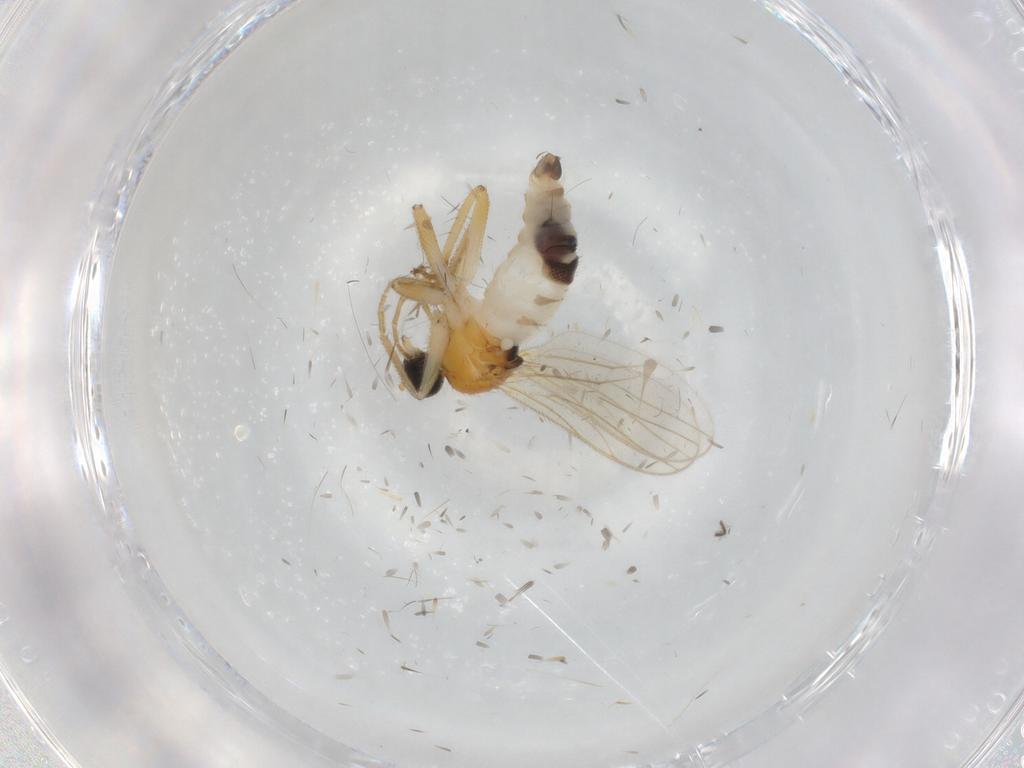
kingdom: Animalia
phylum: Arthropoda
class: Insecta
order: Diptera
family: Hybotidae
